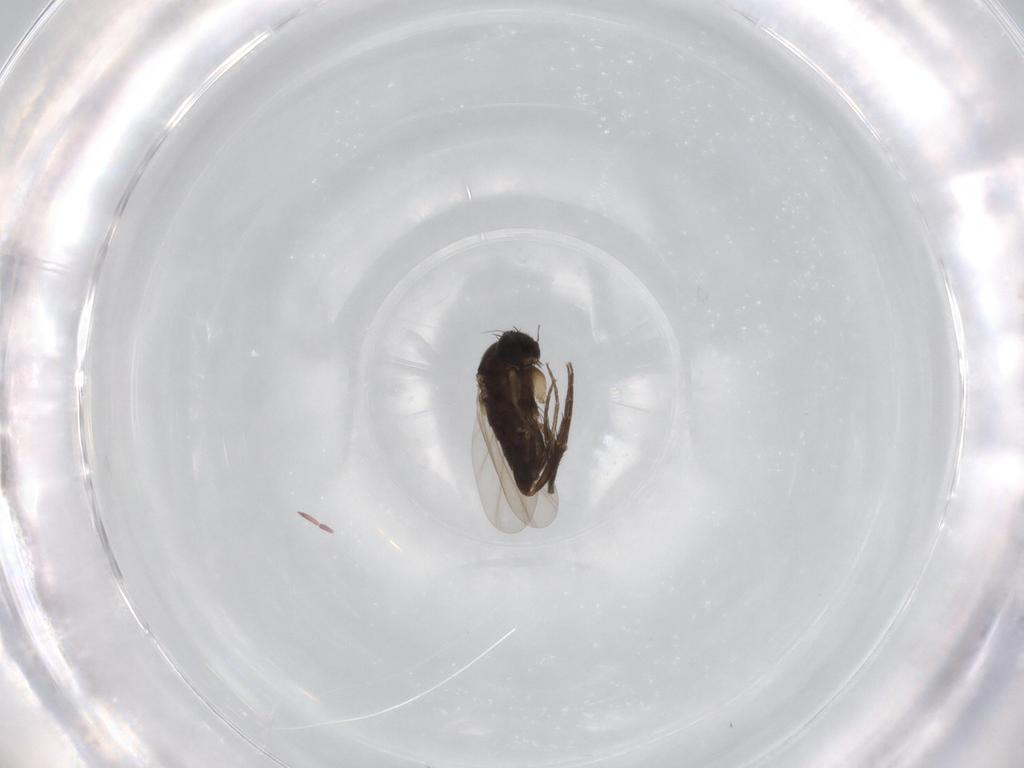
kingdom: Animalia
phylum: Arthropoda
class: Insecta
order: Diptera
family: Phoridae
